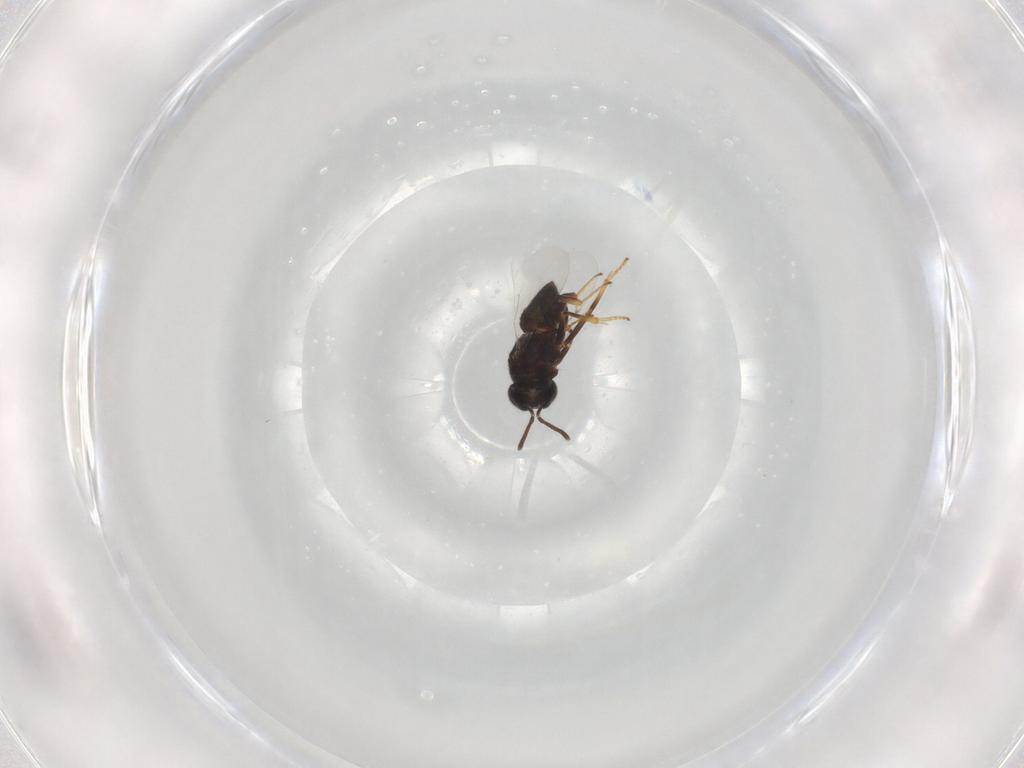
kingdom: Animalia
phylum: Arthropoda
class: Insecta
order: Hymenoptera
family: Encyrtidae
